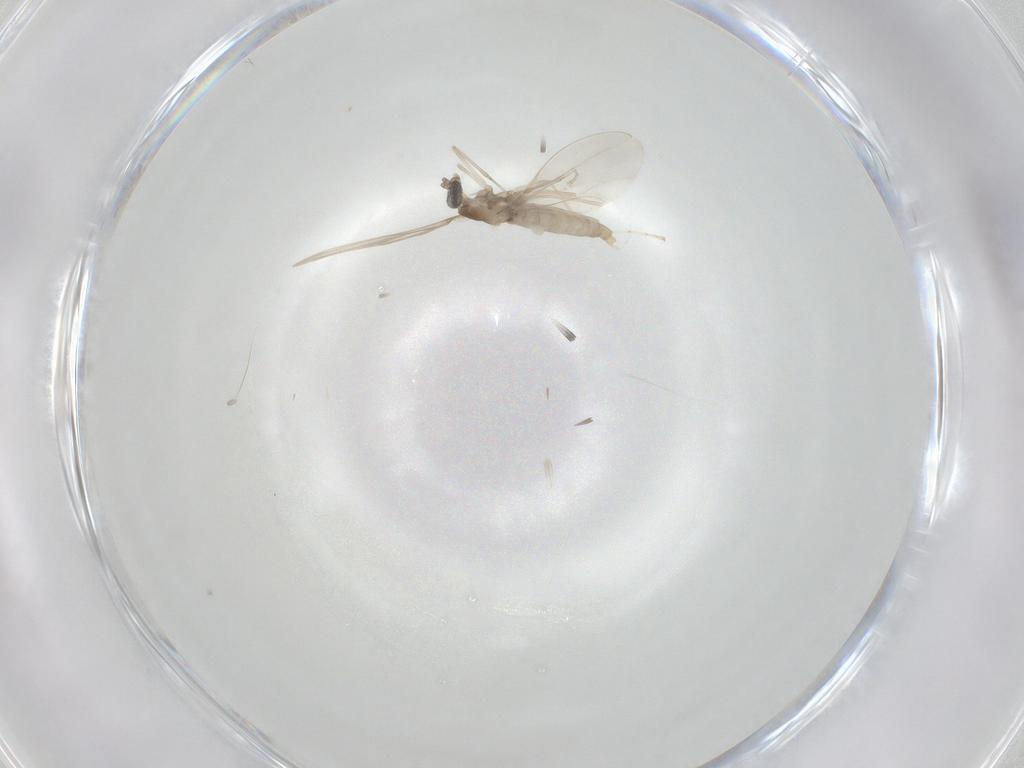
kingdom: Animalia
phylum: Arthropoda
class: Insecta
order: Diptera
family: Cecidomyiidae
